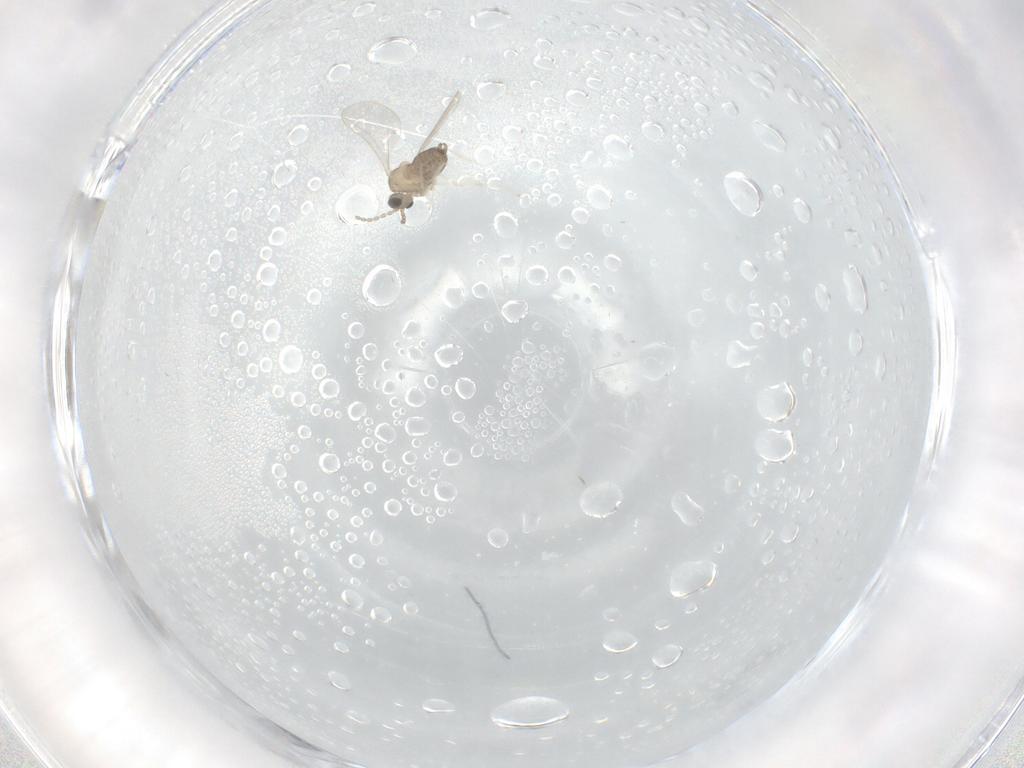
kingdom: Animalia
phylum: Arthropoda
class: Insecta
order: Diptera
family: Cecidomyiidae
